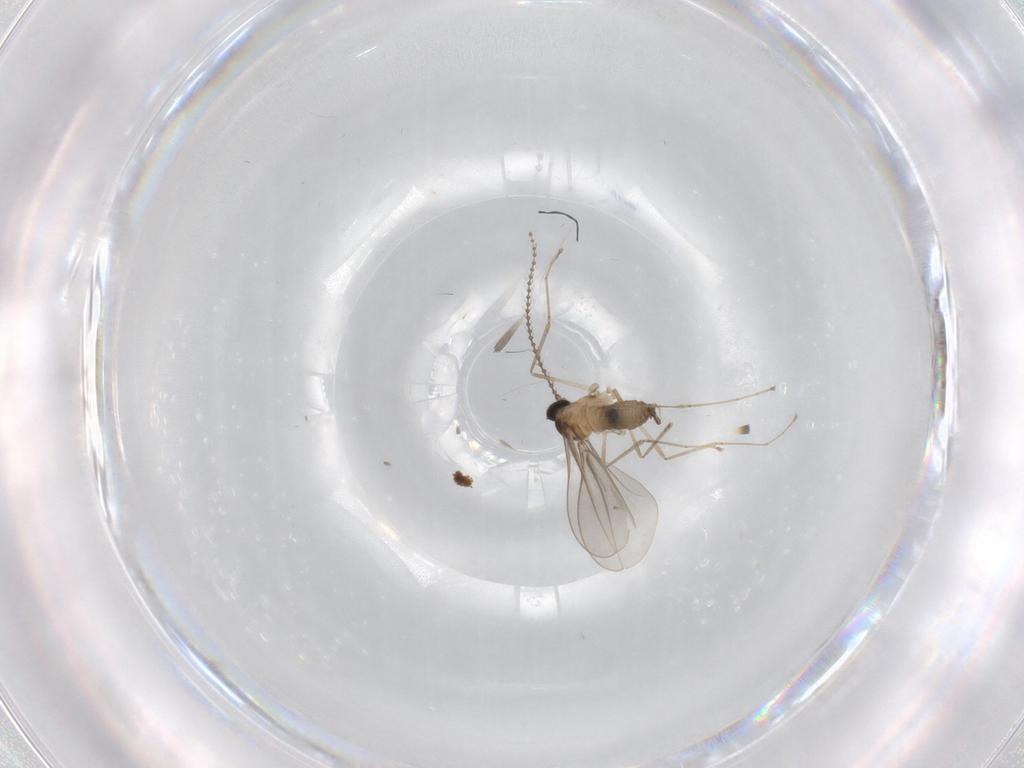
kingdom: Animalia
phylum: Arthropoda
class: Insecta
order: Diptera
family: Cecidomyiidae
